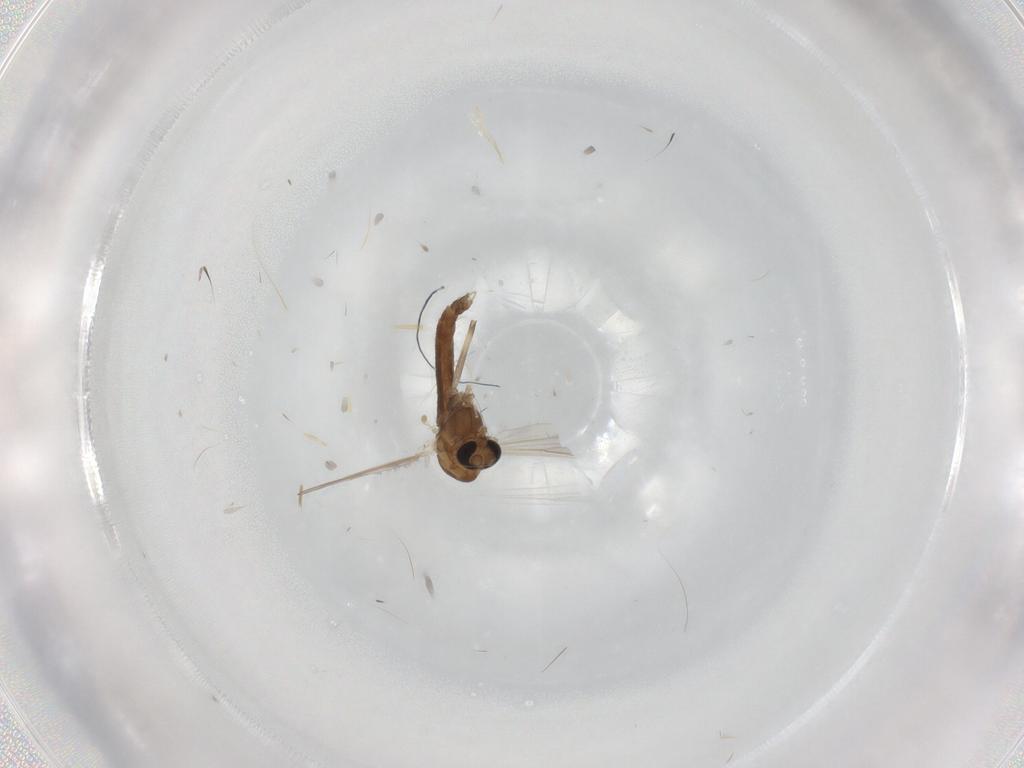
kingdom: Animalia
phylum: Arthropoda
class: Insecta
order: Diptera
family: Chironomidae
